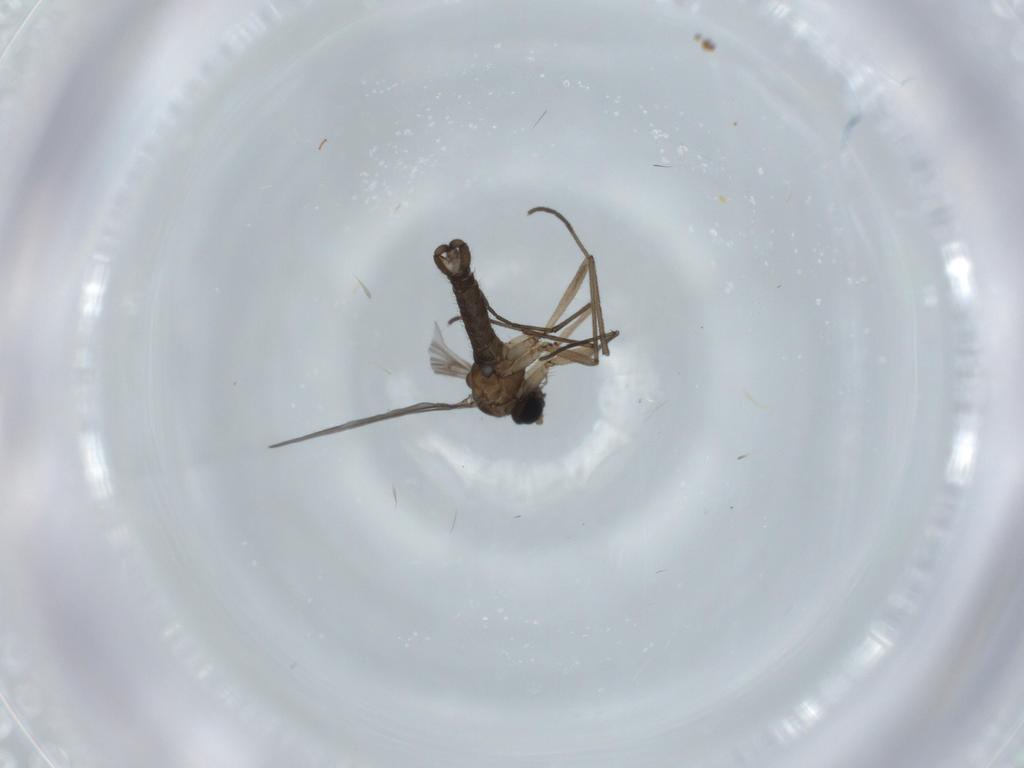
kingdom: Animalia
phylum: Arthropoda
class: Insecta
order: Diptera
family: Sciaridae
